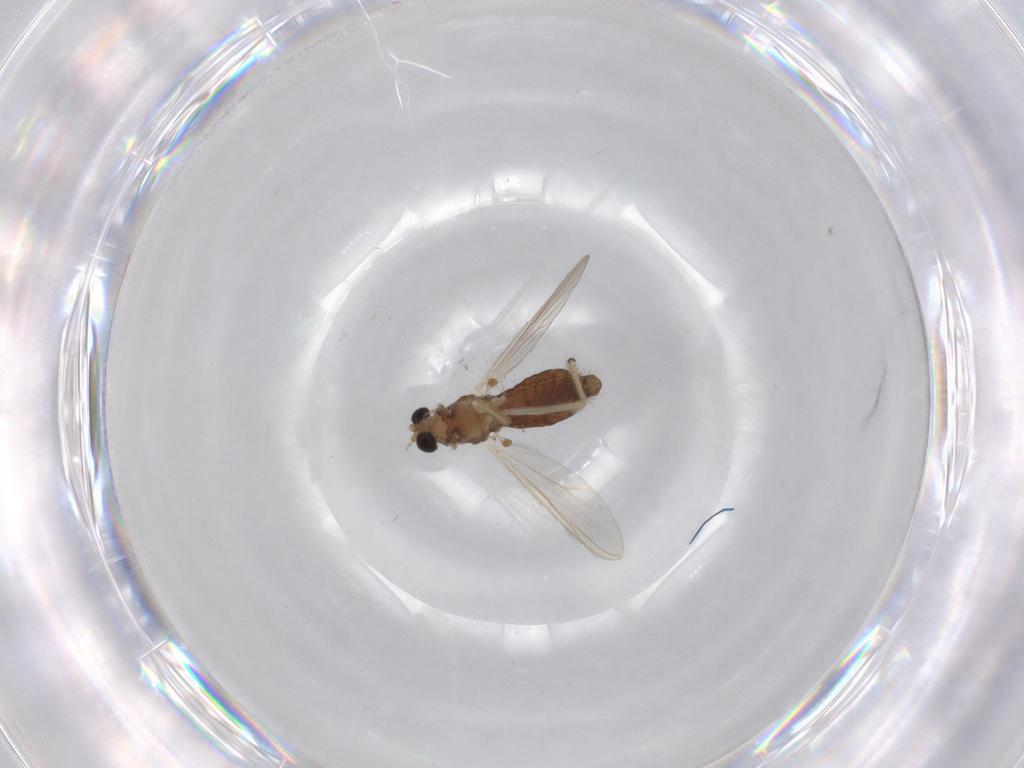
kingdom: Animalia
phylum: Arthropoda
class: Insecta
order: Diptera
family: Chironomidae
